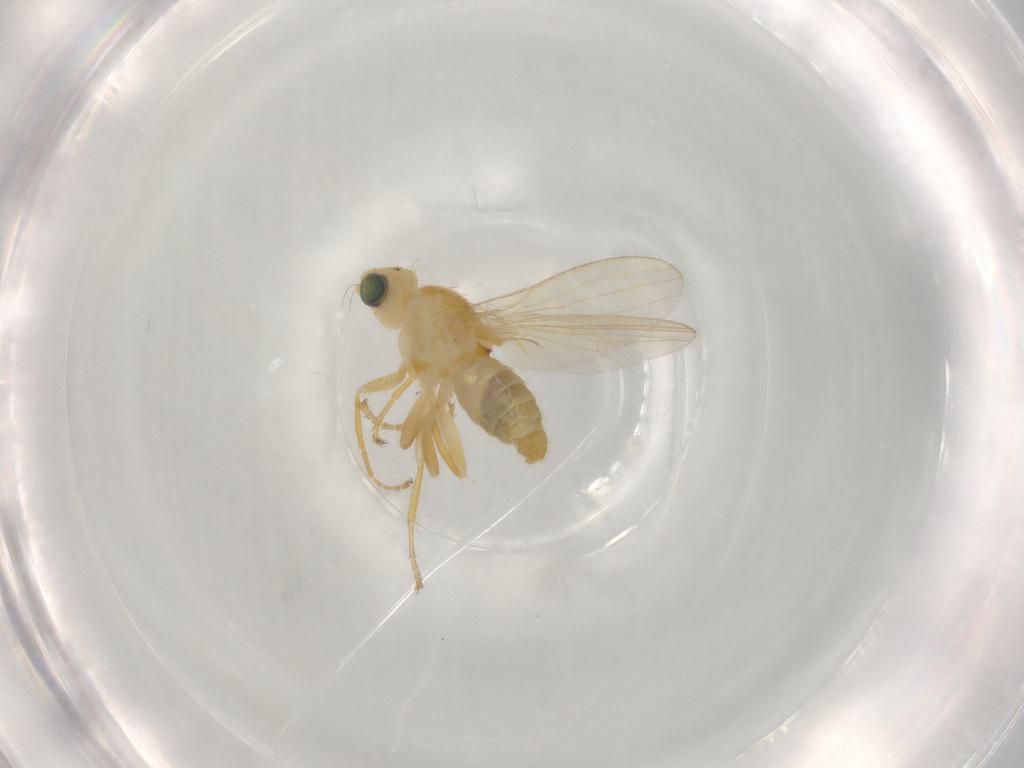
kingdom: Animalia
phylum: Arthropoda
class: Insecta
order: Diptera
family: Chyromyidae
